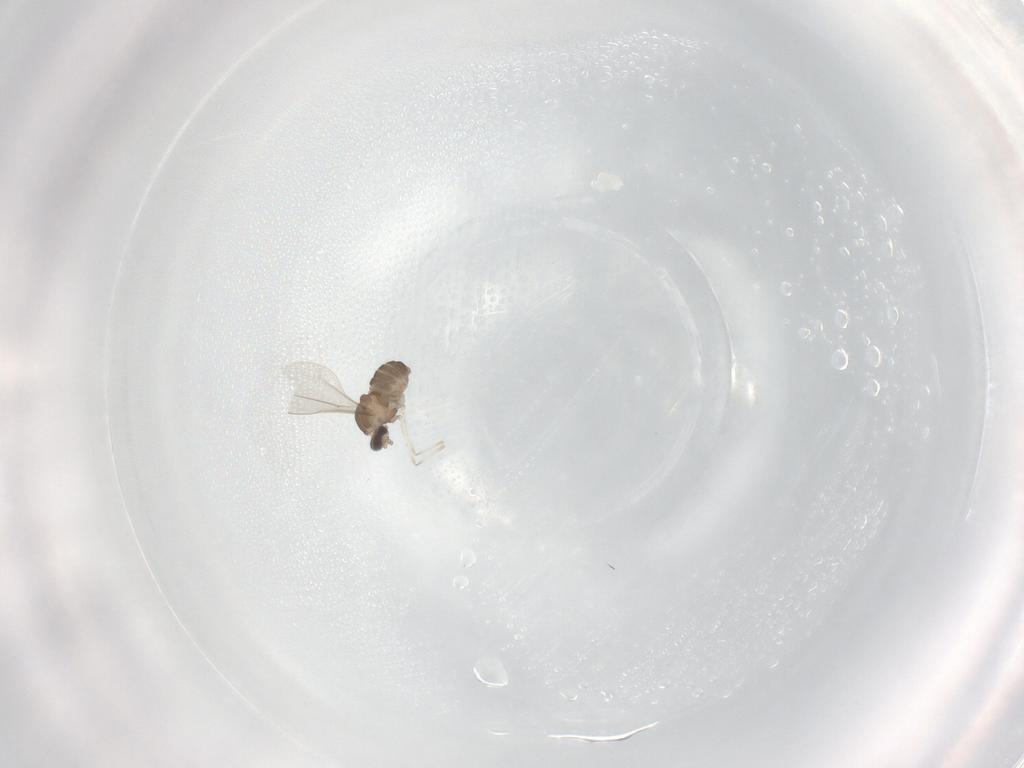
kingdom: Animalia
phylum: Arthropoda
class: Insecta
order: Diptera
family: Cecidomyiidae
